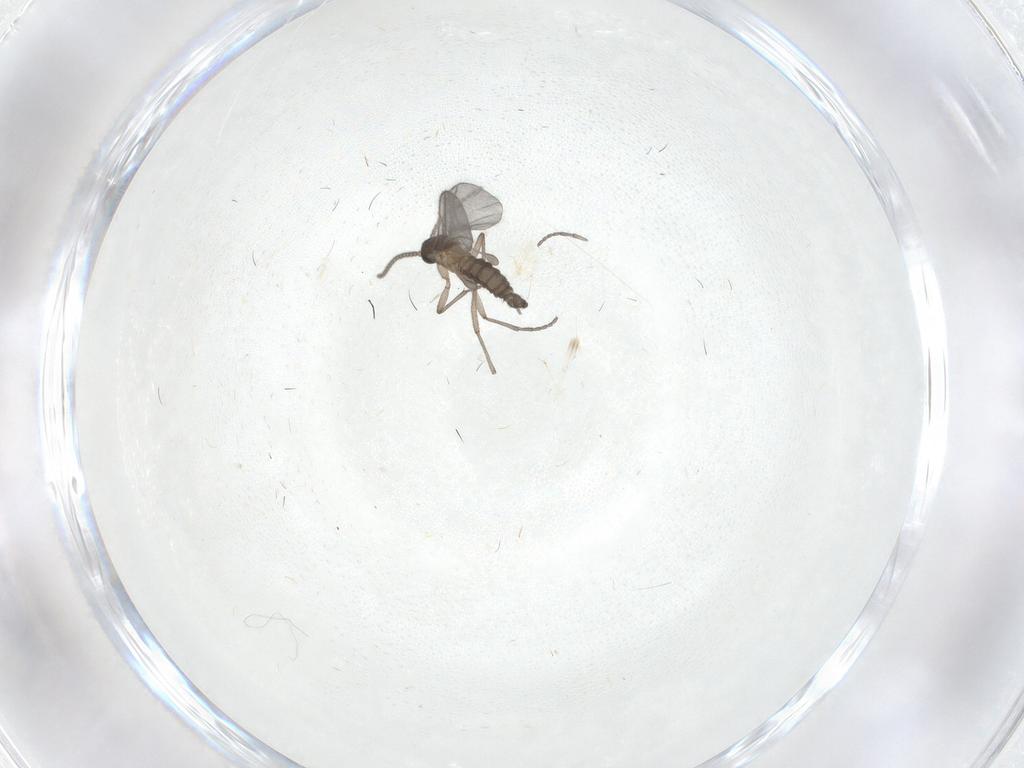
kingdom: Animalia
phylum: Arthropoda
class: Insecta
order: Diptera
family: Sciaridae
